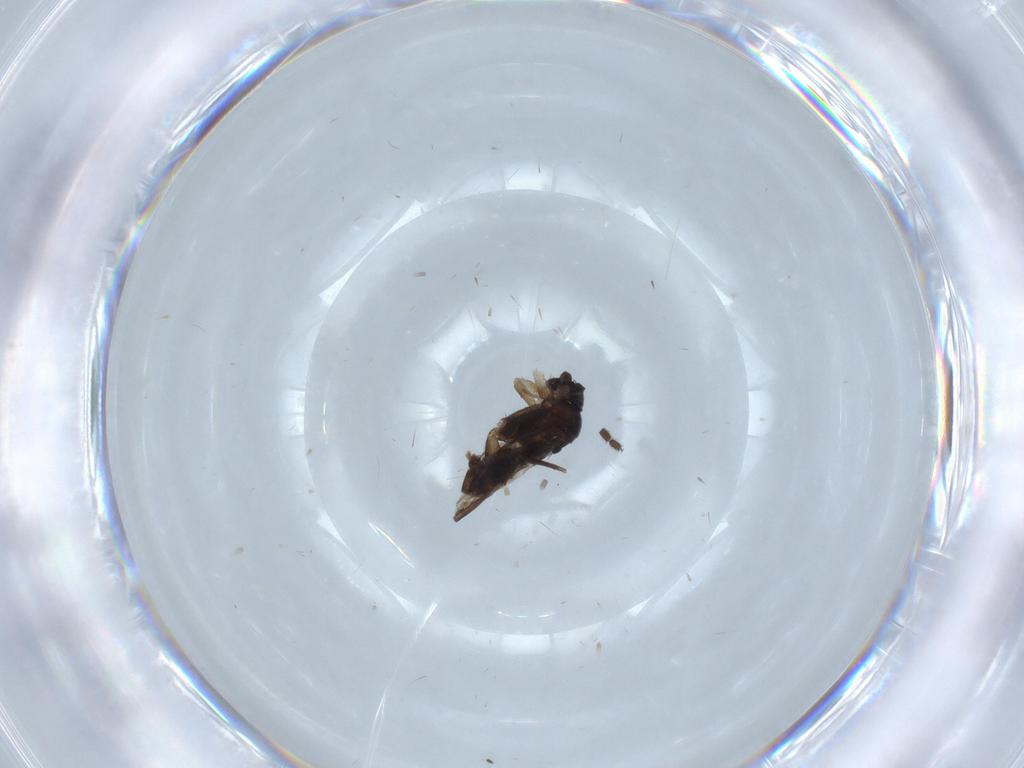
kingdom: Animalia
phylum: Arthropoda
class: Insecta
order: Diptera
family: Sciaridae
